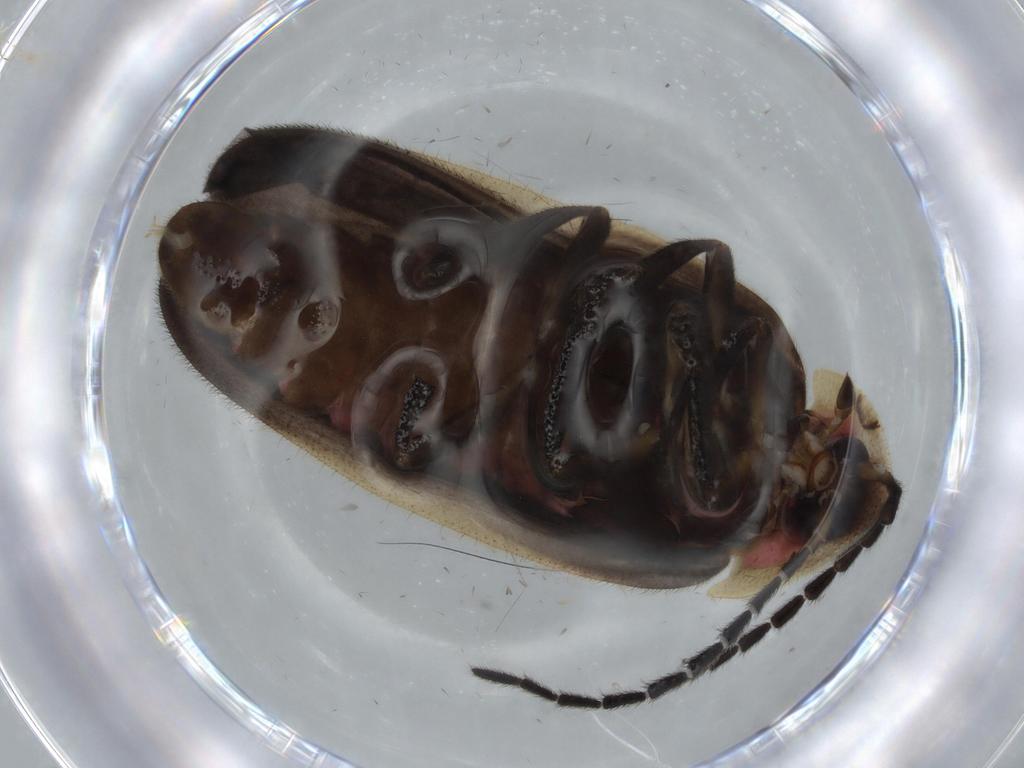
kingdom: Animalia
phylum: Arthropoda
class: Insecta
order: Coleoptera
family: Lampyridae
